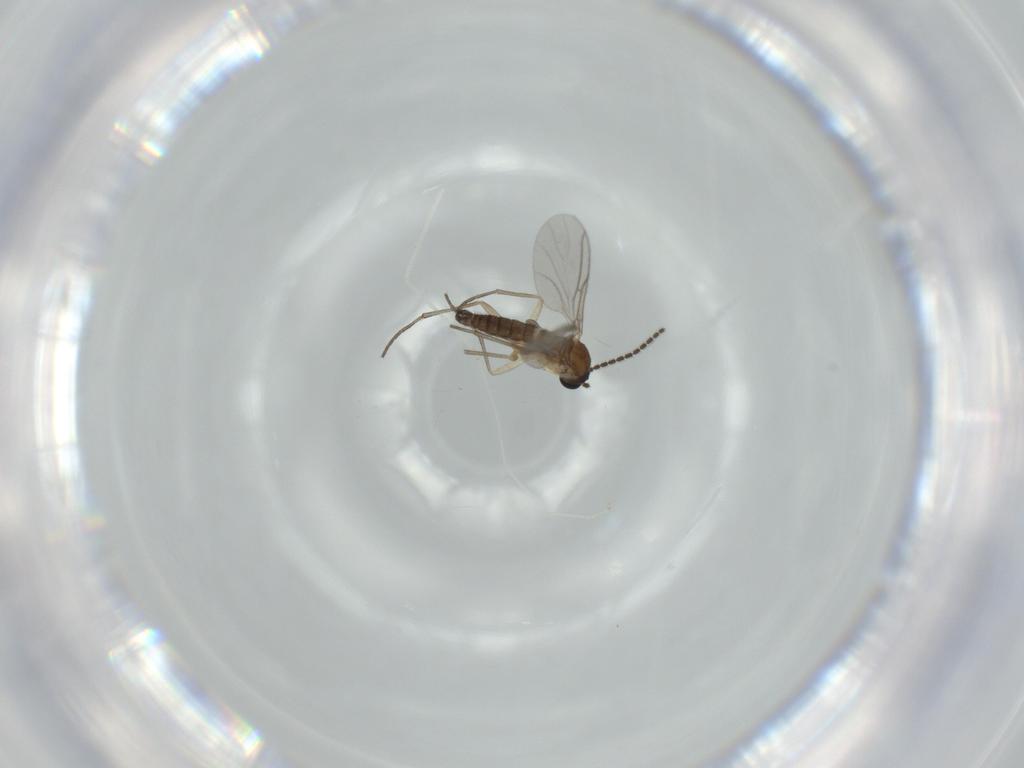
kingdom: Animalia
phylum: Arthropoda
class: Insecta
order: Diptera
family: Sciaridae
